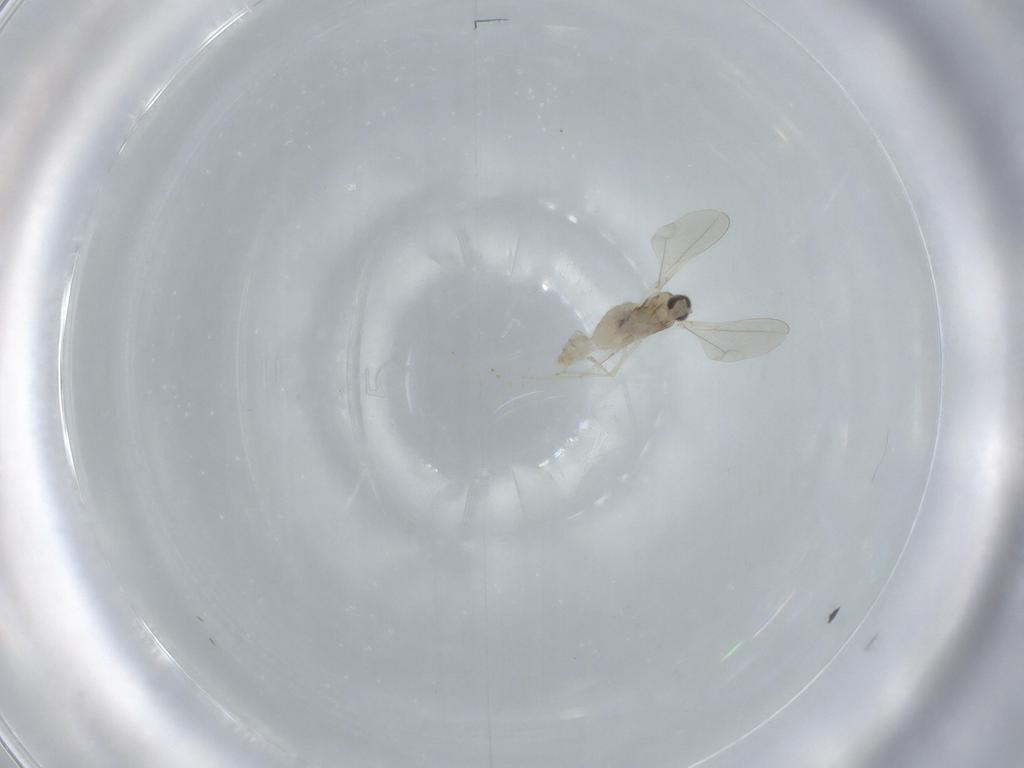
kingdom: Animalia
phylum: Arthropoda
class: Insecta
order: Diptera
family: Cecidomyiidae
